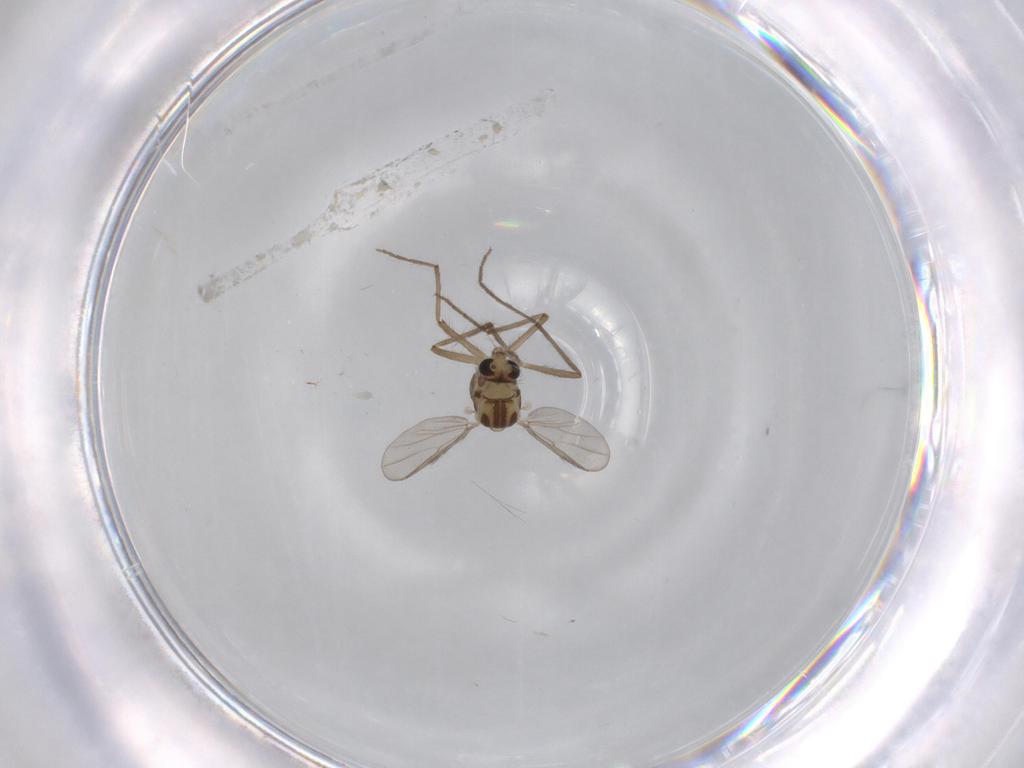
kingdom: Animalia
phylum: Arthropoda
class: Insecta
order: Diptera
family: Chironomidae
